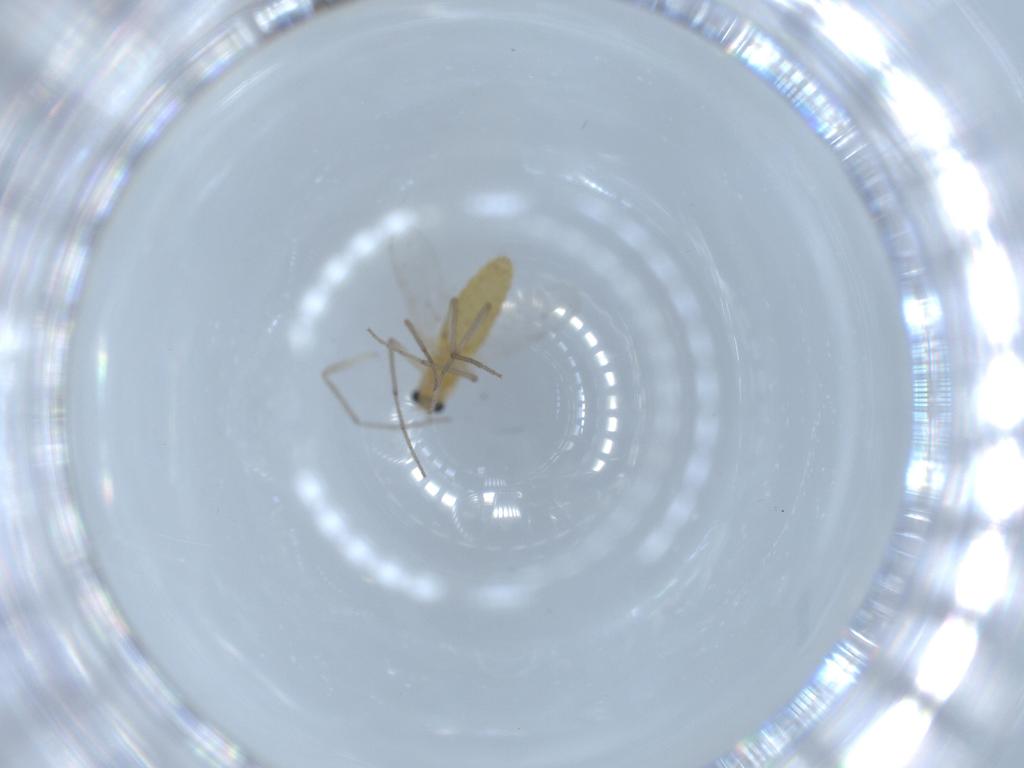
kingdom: Animalia
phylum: Arthropoda
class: Insecta
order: Diptera
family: Chironomidae
